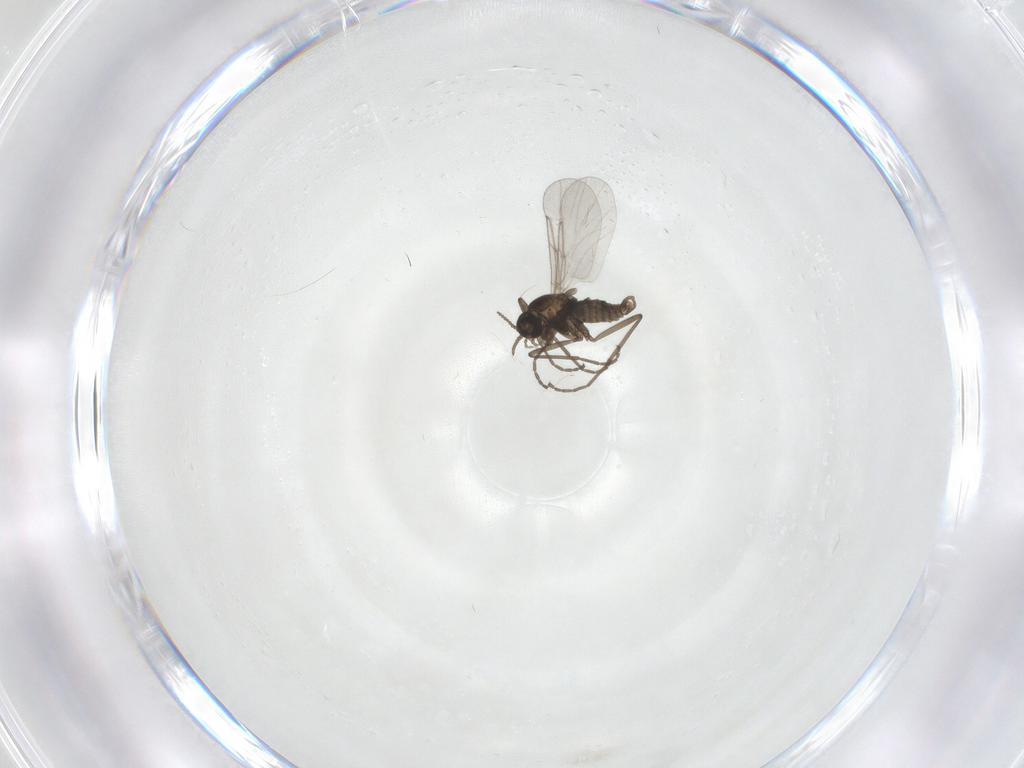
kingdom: Animalia
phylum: Arthropoda
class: Insecta
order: Diptera
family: Cecidomyiidae
